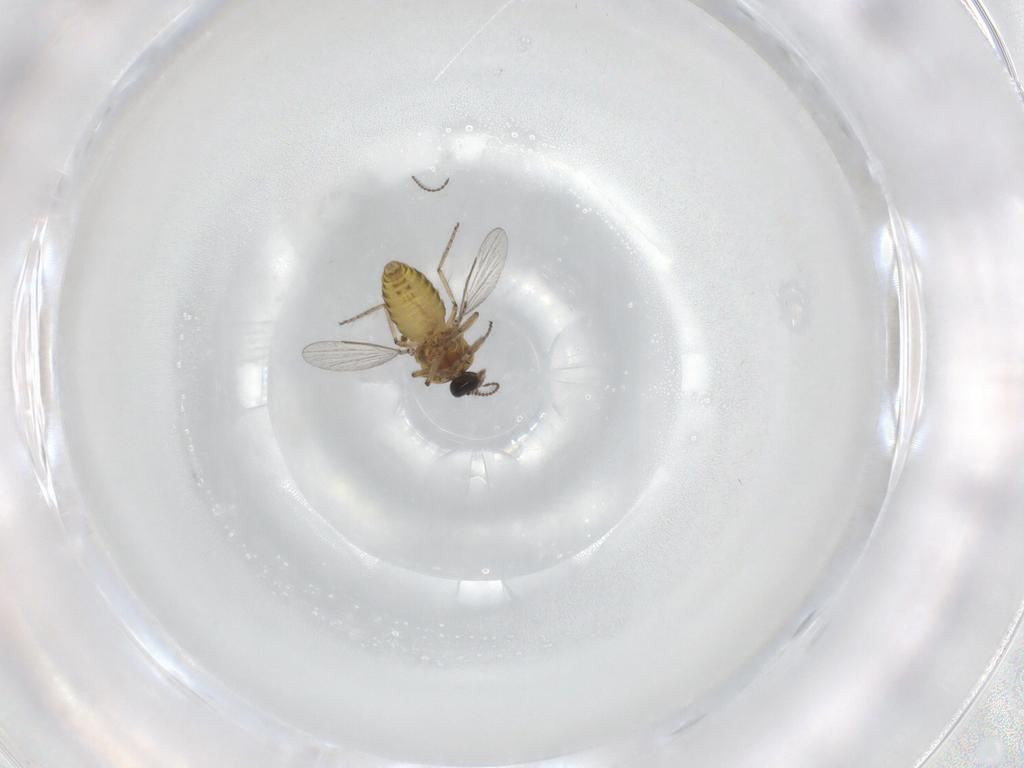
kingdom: Animalia
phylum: Arthropoda
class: Insecta
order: Diptera
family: Ceratopogonidae
